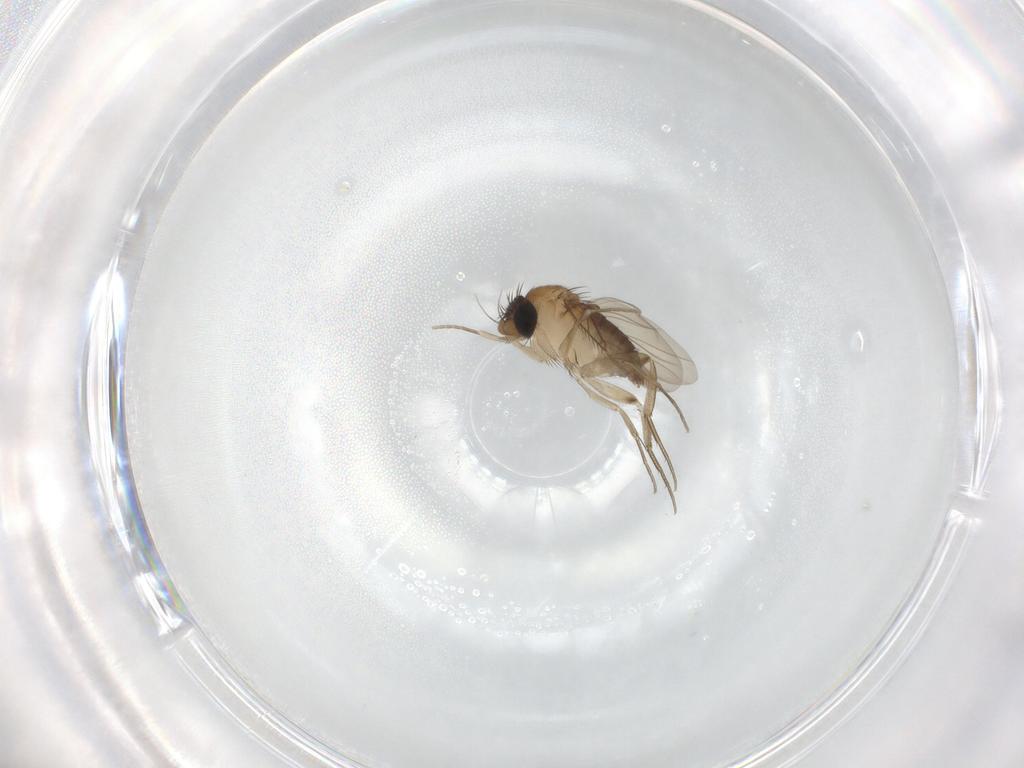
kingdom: Animalia
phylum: Arthropoda
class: Insecta
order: Diptera
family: Phoridae
